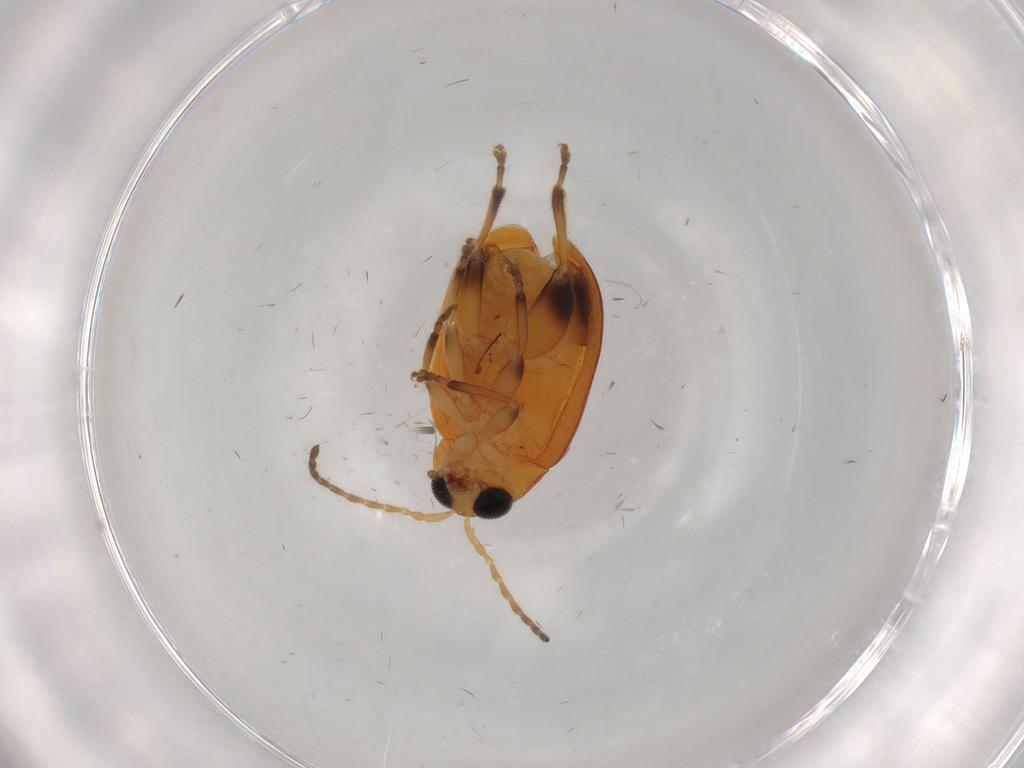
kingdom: Animalia
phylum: Arthropoda
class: Insecta
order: Coleoptera
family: Chrysomelidae
